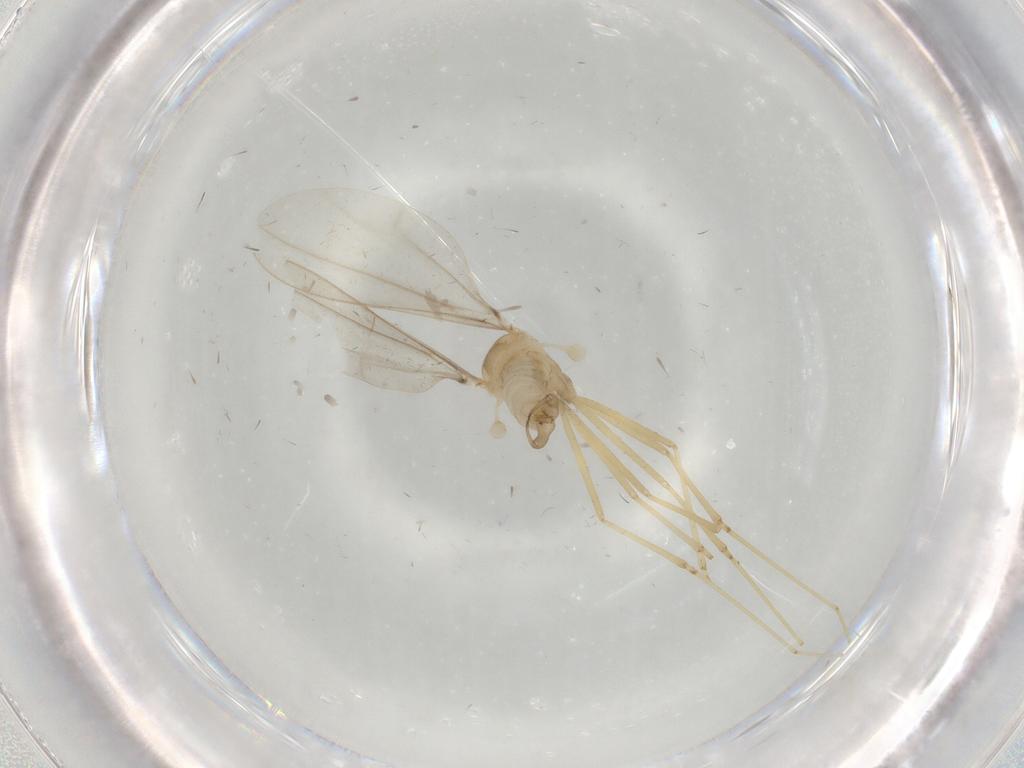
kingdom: Animalia
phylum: Arthropoda
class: Insecta
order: Diptera
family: Cecidomyiidae
